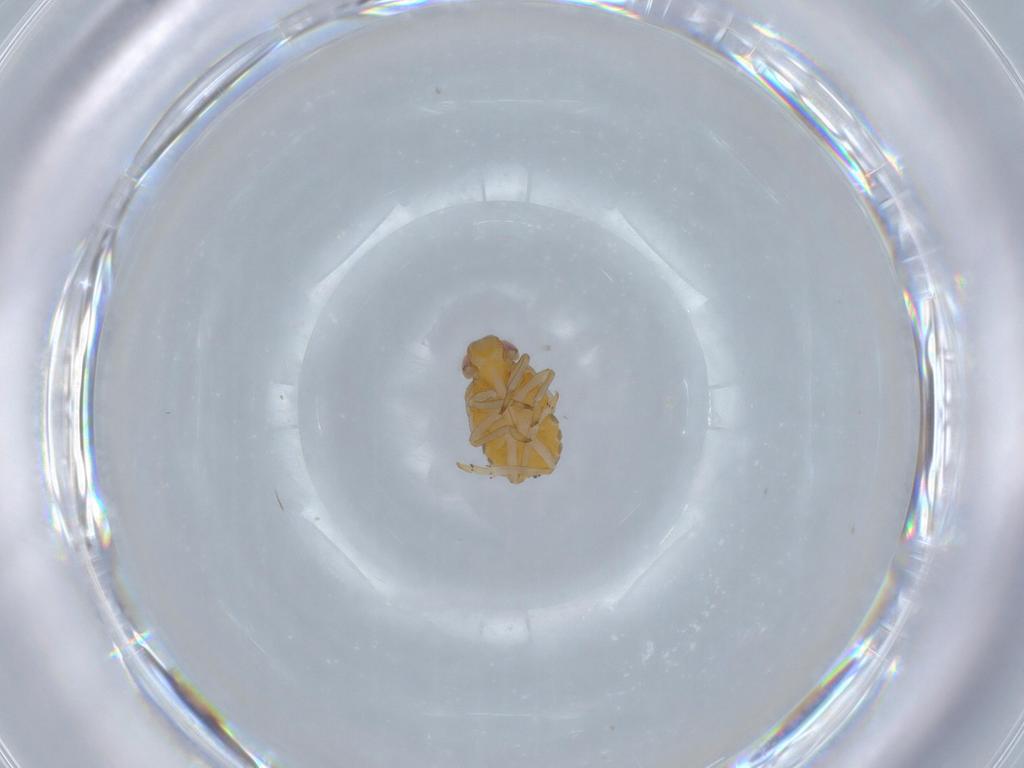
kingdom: Animalia
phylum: Arthropoda
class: Insecta
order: Hemiptera
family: Fulgoroidea_incertae_sedis
